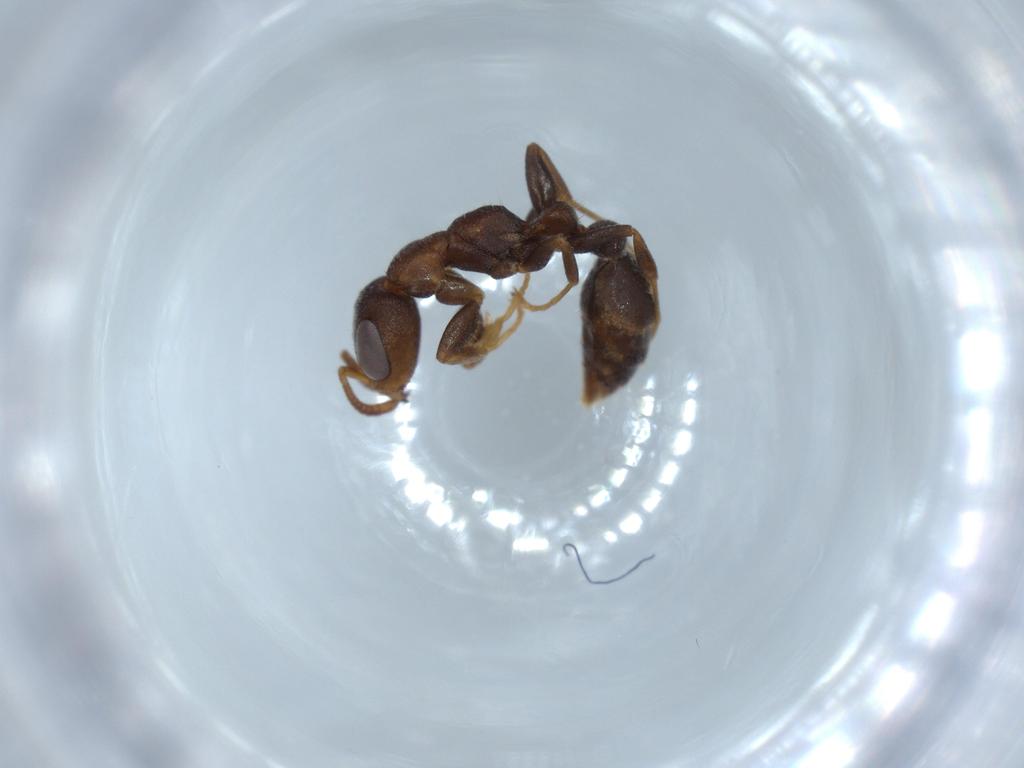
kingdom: Animalia
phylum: Arthropoda
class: Insecta
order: Hymenoptera
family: Formicidae
